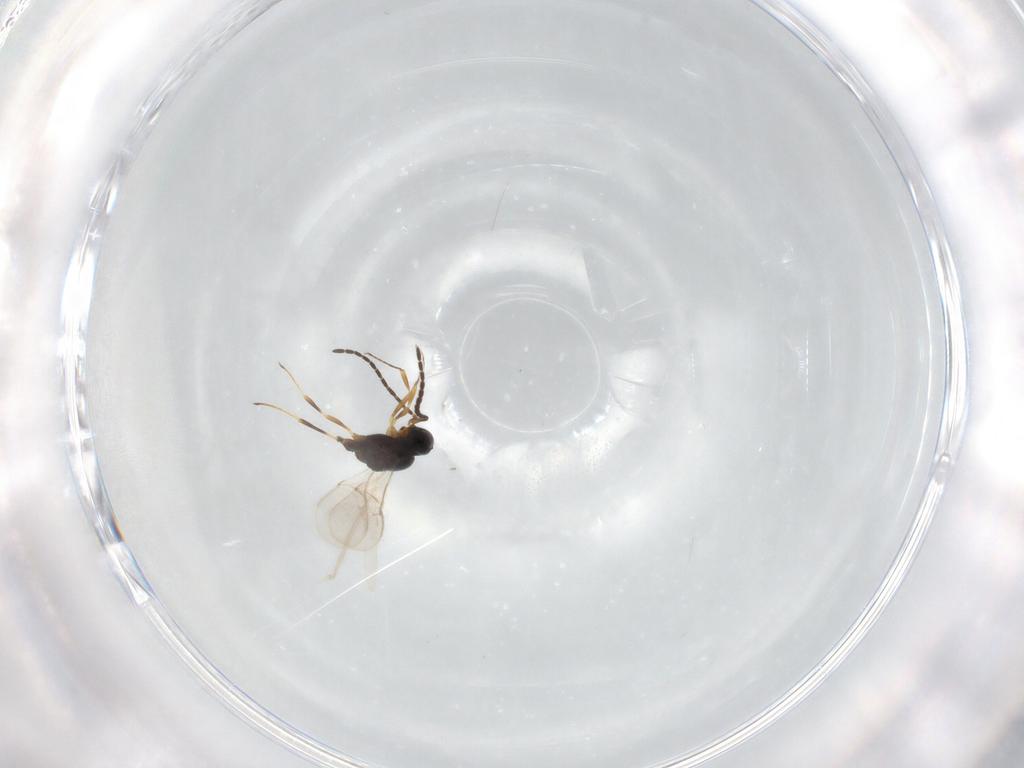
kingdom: Animalia
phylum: Arthropoda
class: Insecta
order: Hymenoptera
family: Scelionidae
